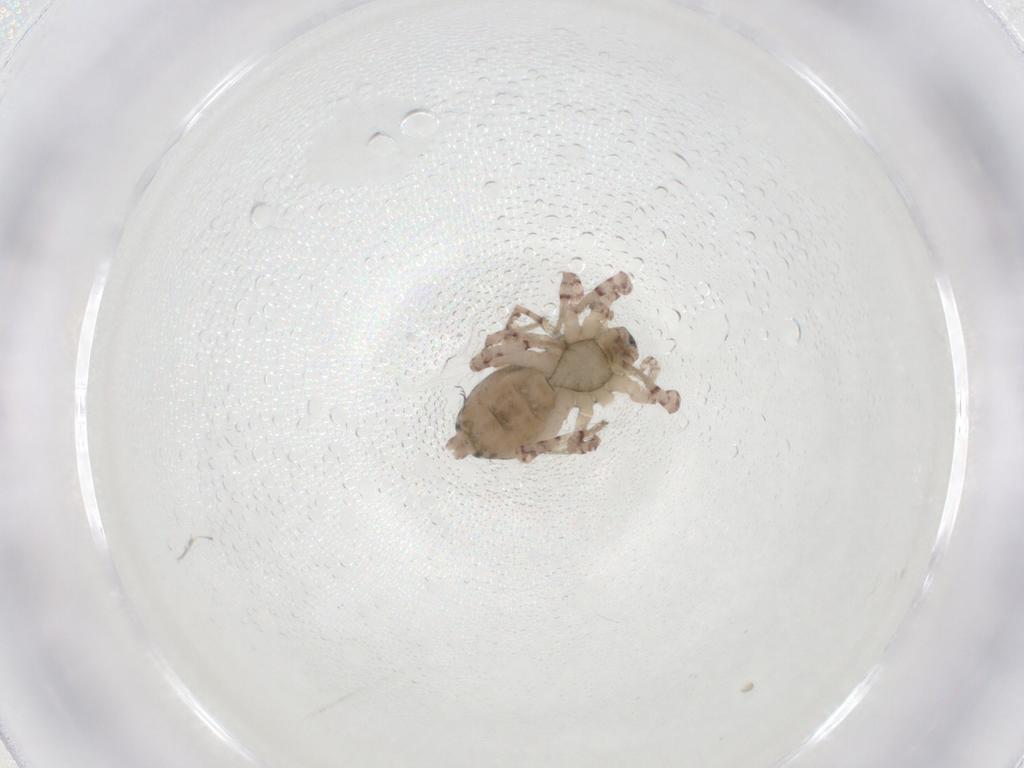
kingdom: Animalia
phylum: Arthropoda
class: Arachnida
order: Araneae
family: Anyphaenidae
